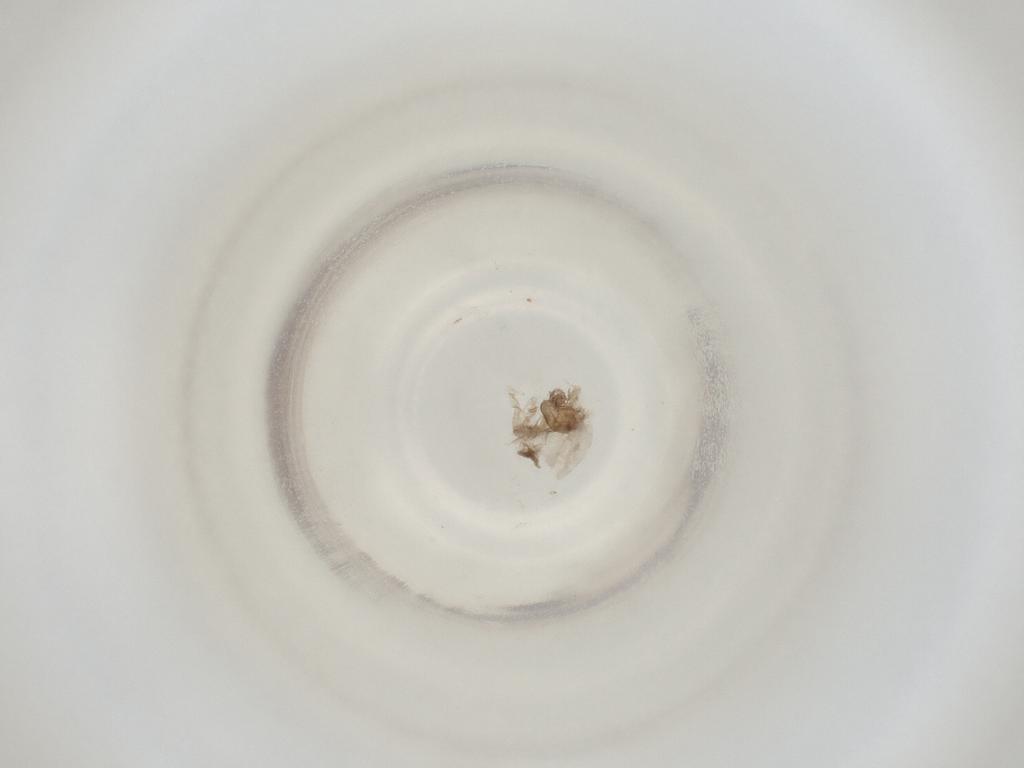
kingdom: Animalia
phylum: Arthropoda
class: Insecta
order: Diptera
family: Cecidomyiidae
